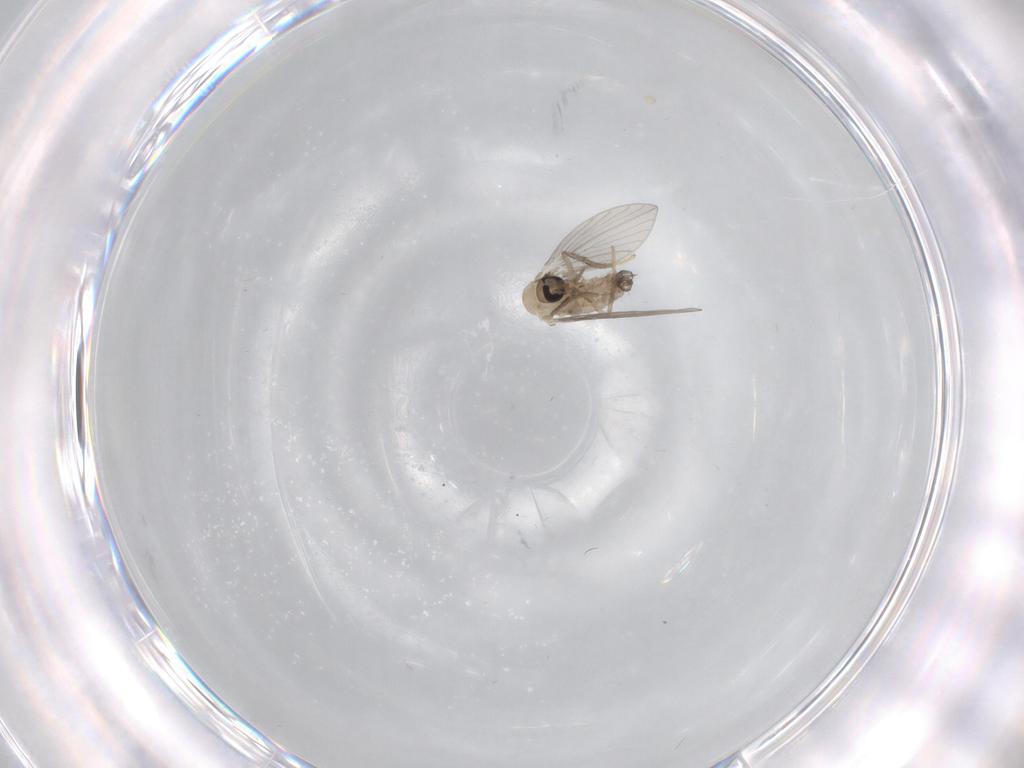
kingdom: Animalia
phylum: Arthropoda
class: Insecta
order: Diptera
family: Psychodidae
